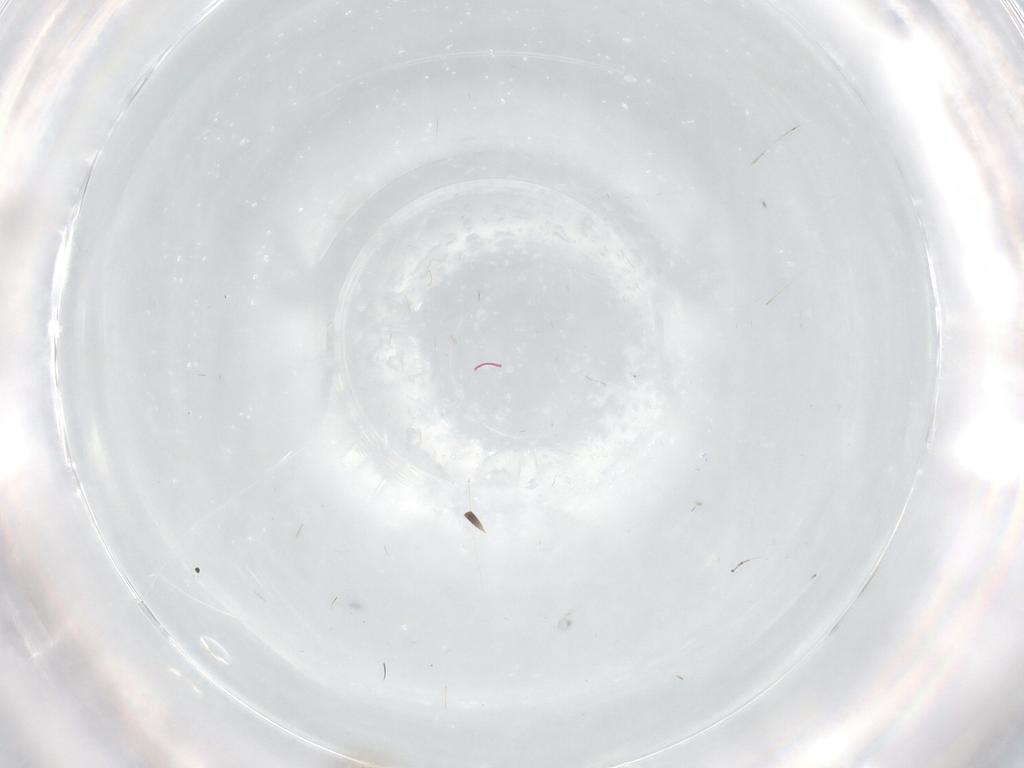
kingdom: Animalia
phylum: Arthropoda
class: Insecta
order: Diptera
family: Cecidomyiidae
